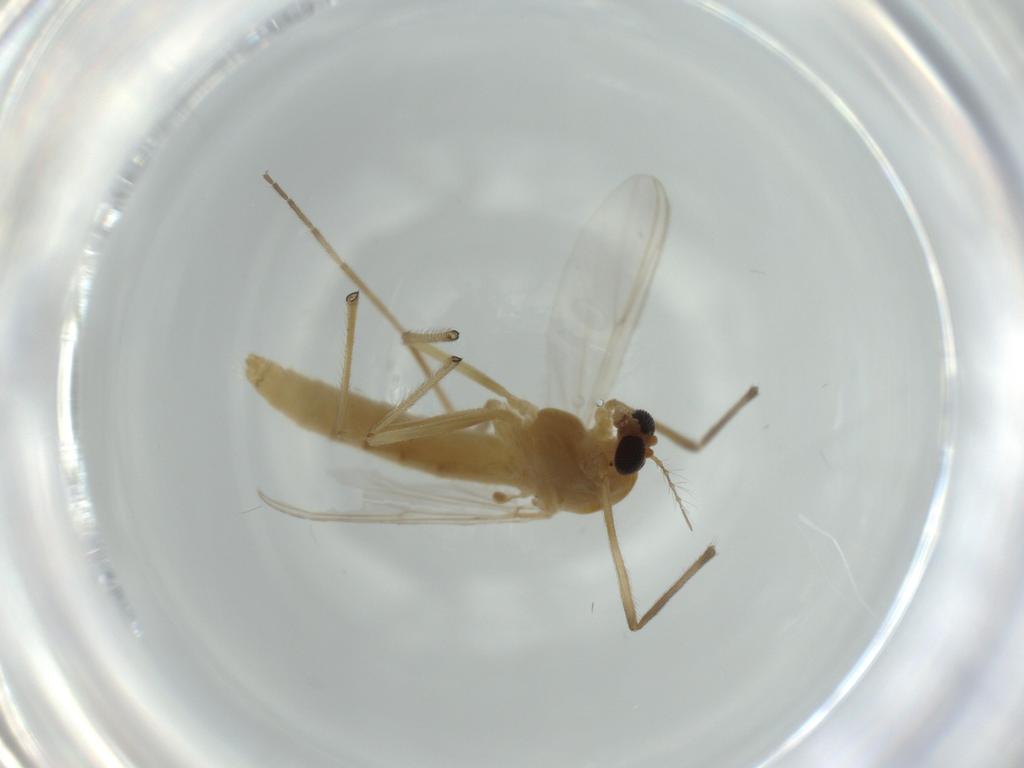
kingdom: Animalia
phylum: Arthropoda
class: Insecta
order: Diptera
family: Chironomidae
